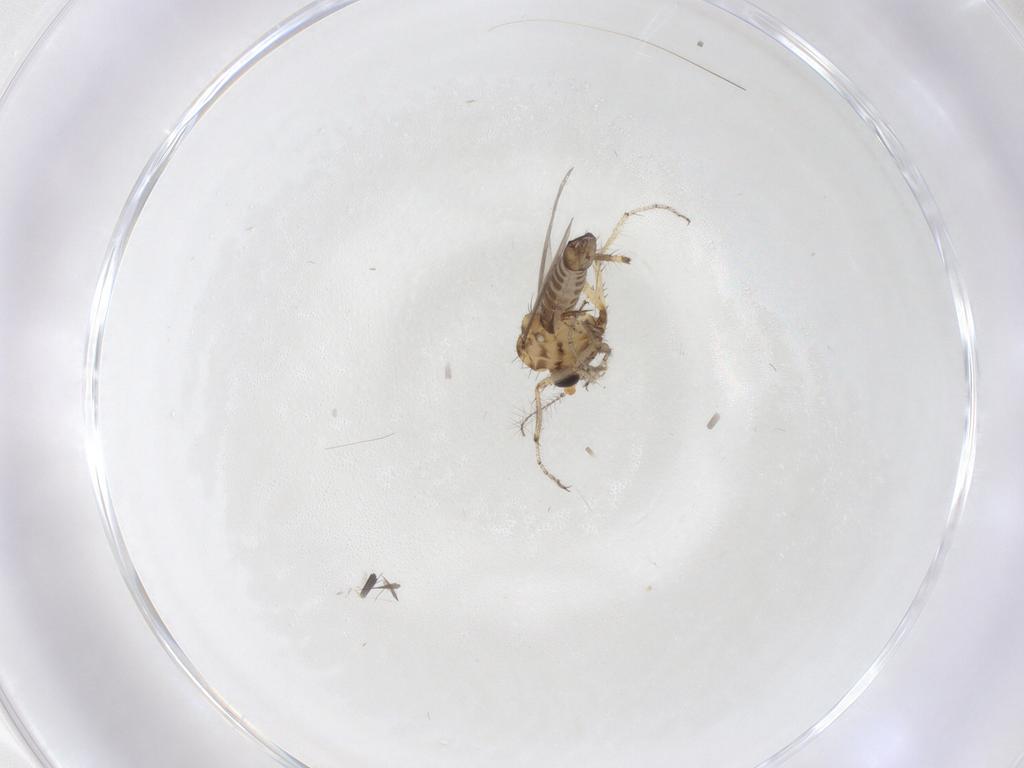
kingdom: Animalia
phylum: Arthropoda
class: Insecta
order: Diptera
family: Ceratopogonidae
